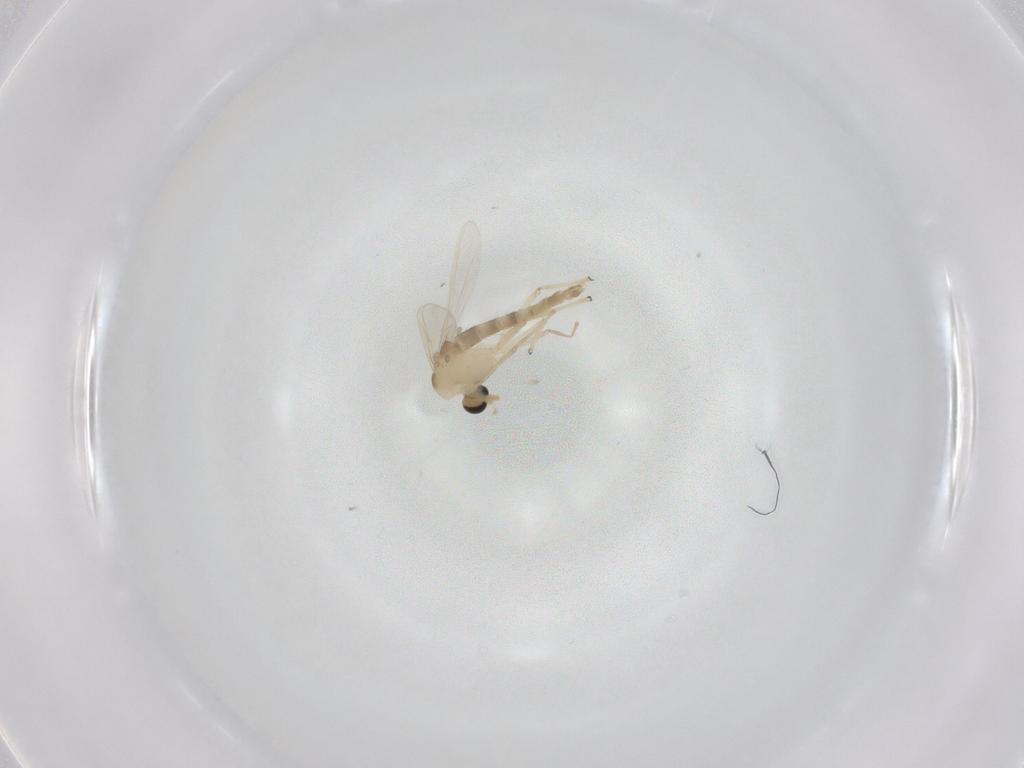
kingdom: Animalia
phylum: Arthropoda
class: Insecta
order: Diptera
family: Chironomidae
